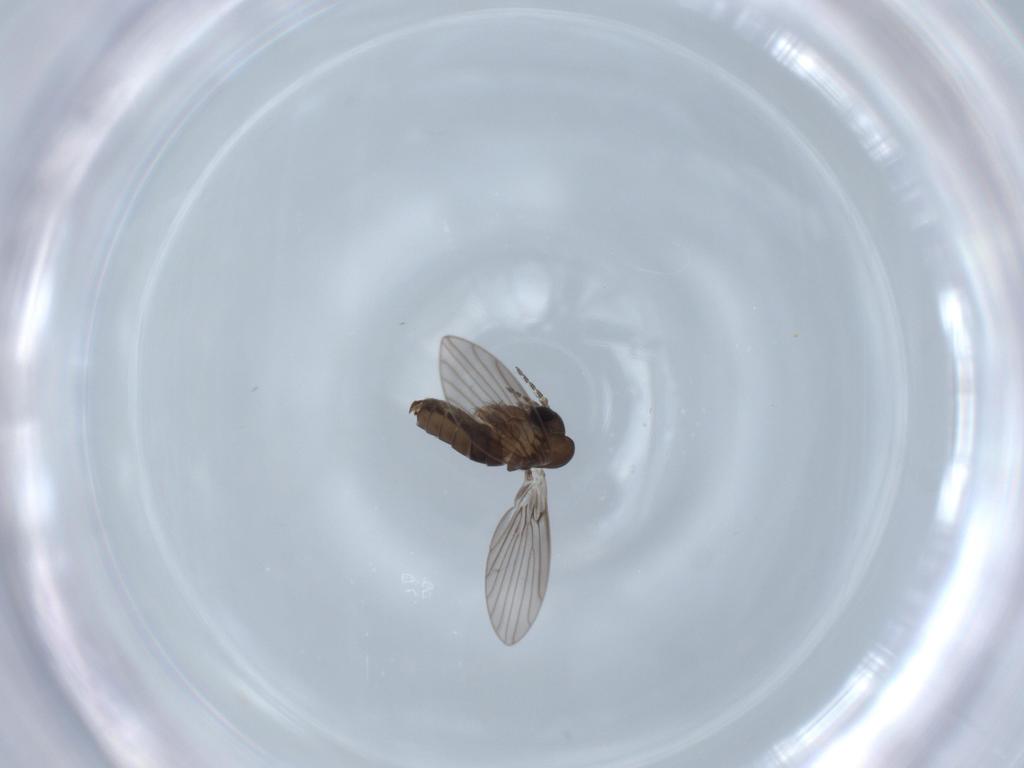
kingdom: Animalia
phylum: Arthropoda
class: Insecta
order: Diptera
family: Psychodidae
